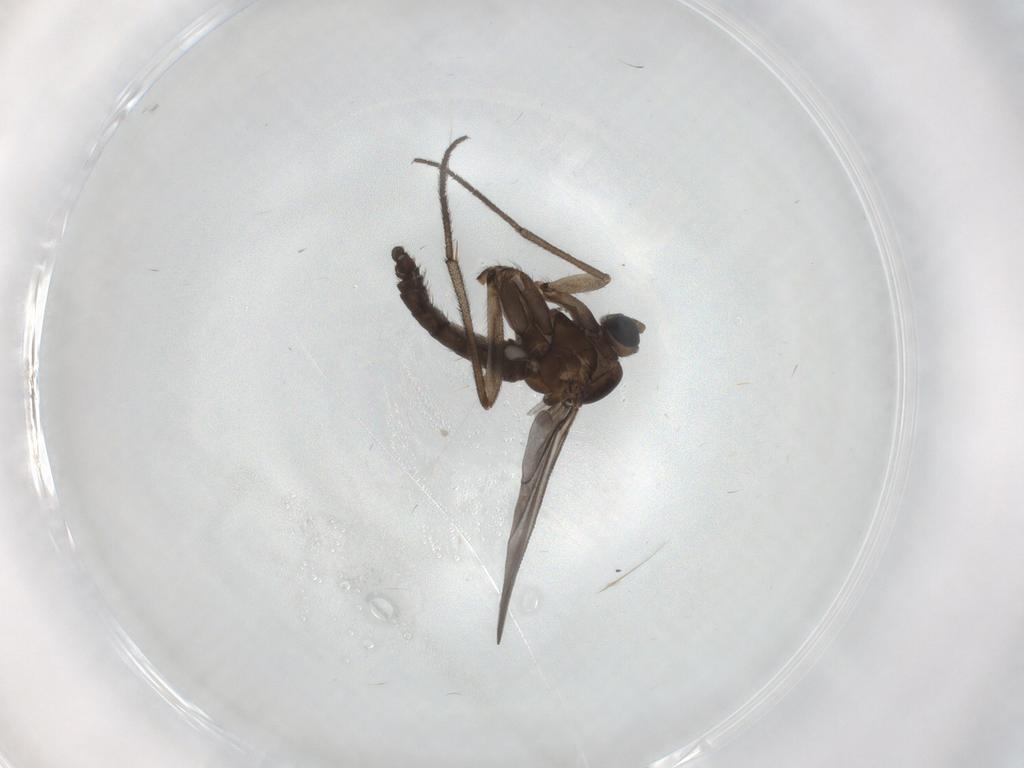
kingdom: Animalia
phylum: Arthropoda
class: Insecta
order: Diptera
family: Sciaridae
